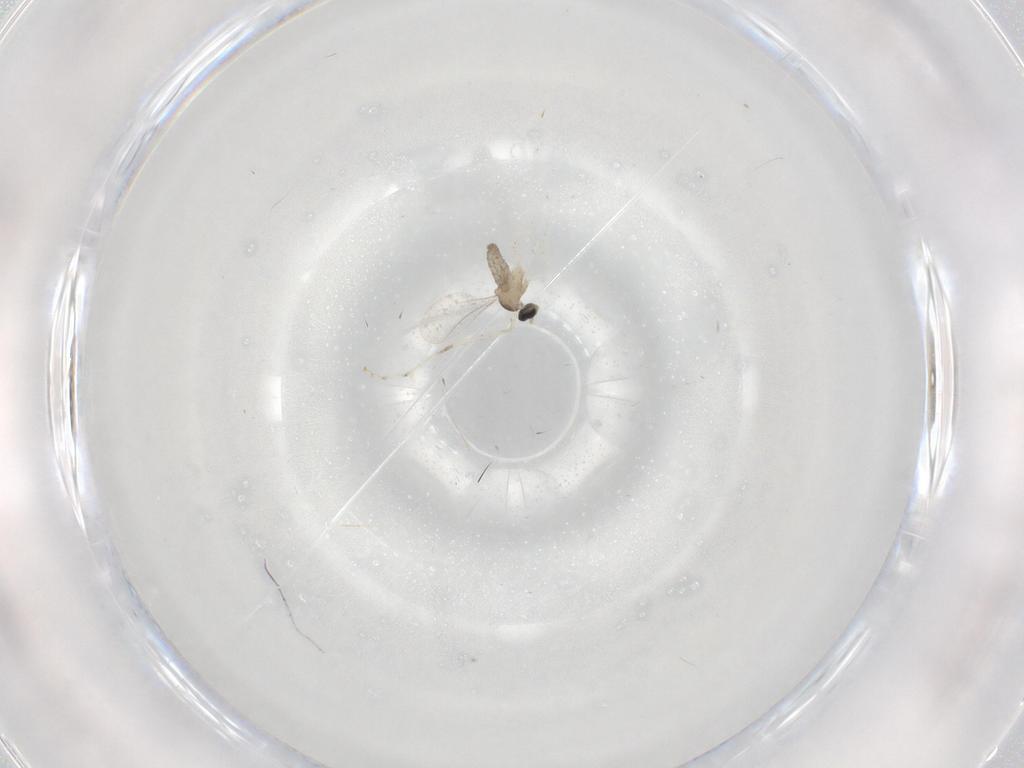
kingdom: Animalia
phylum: Arthropoda
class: Insecta
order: Diptera
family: Cecidomyiidae
